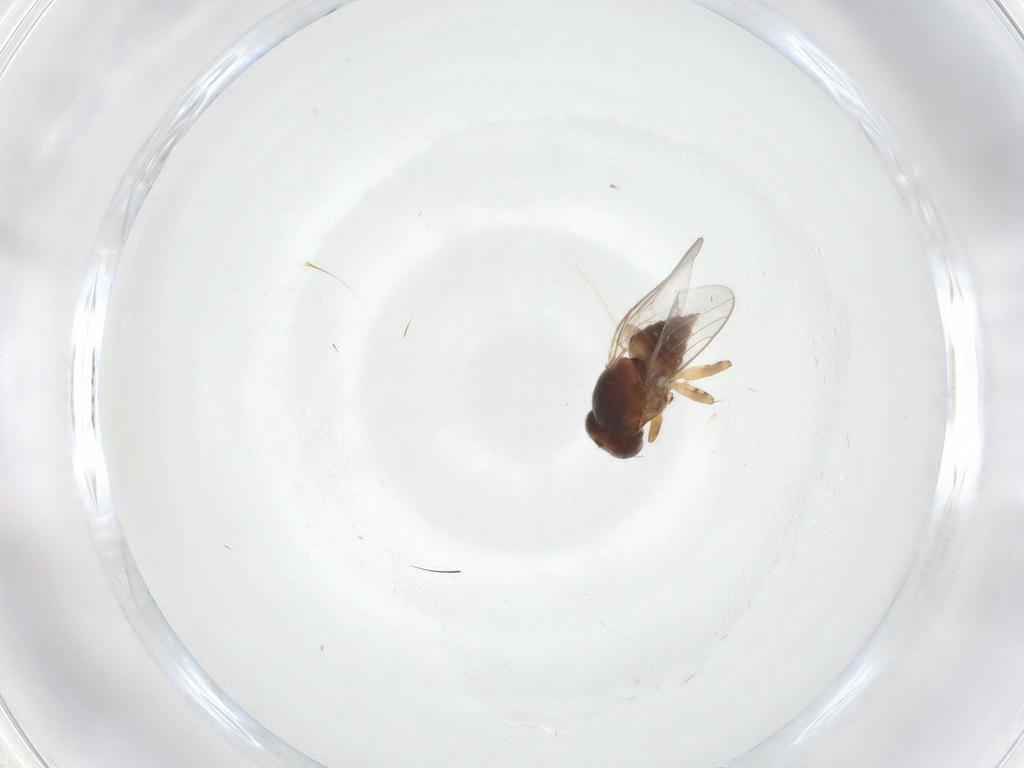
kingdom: Animalia
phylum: Arthropoda
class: Insecta
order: Diptera
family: Chloropidae
